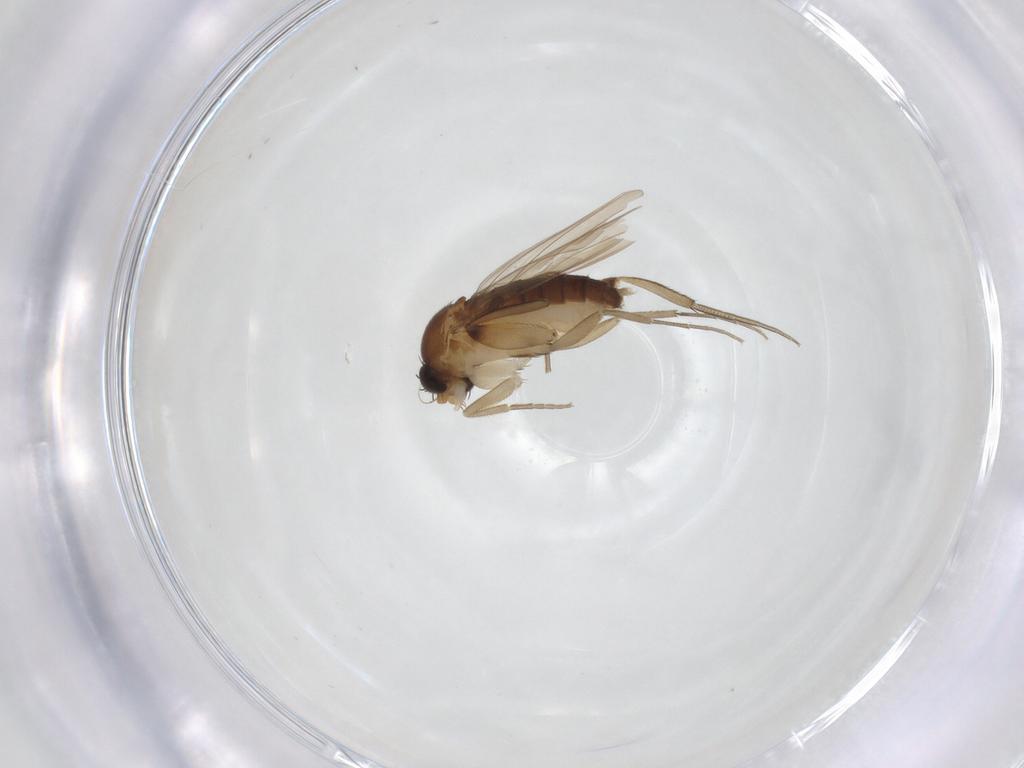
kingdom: Animalia
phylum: Arthropoda
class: Insecta
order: Diptera
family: Phoridae
